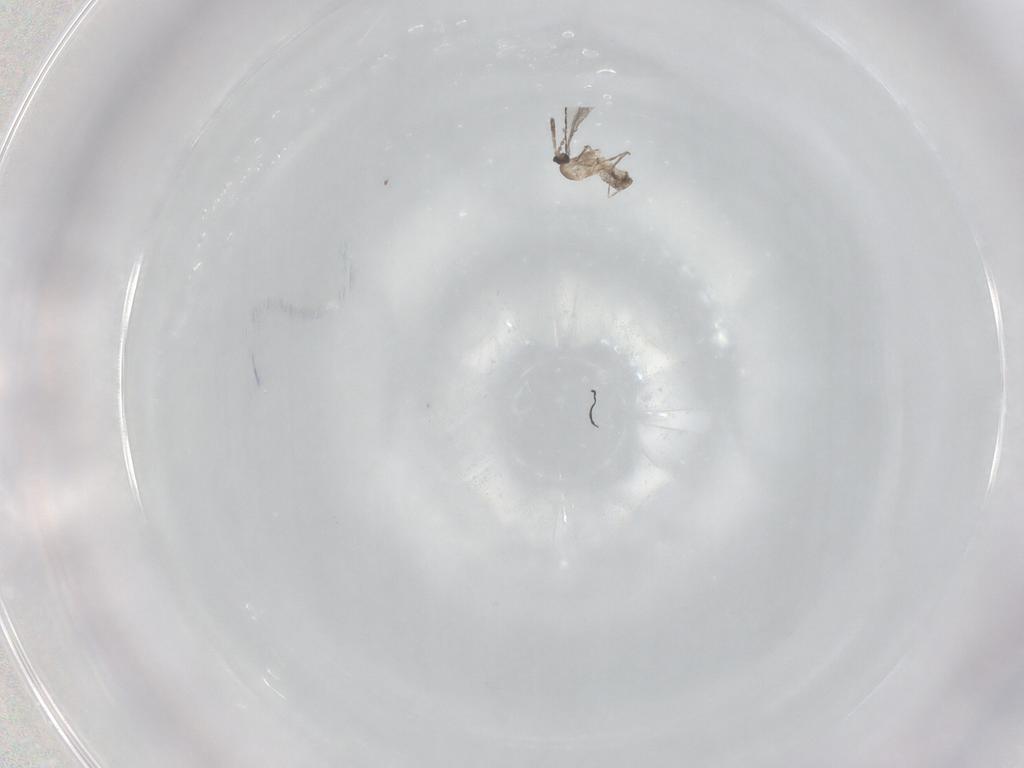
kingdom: Animalia
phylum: Arthropoda
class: Insecta
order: Diptera
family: Cecidomyiidae
